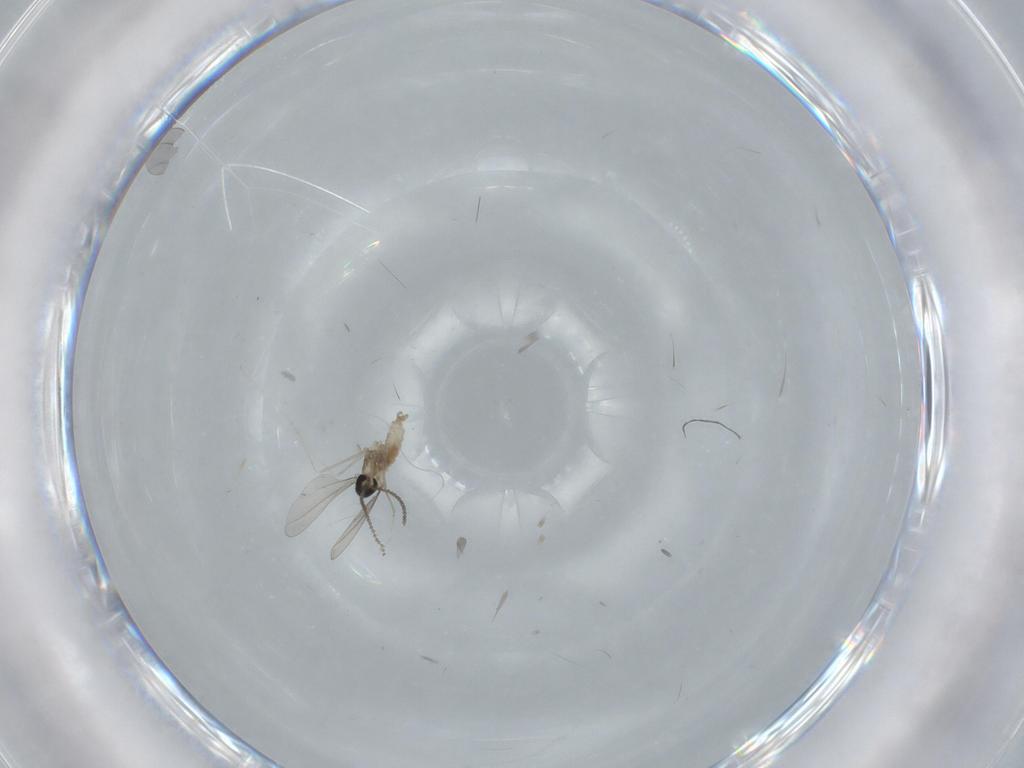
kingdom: Animalia
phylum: Arthropoda
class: Insecta
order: Diptera
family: Cecidomyiidae
